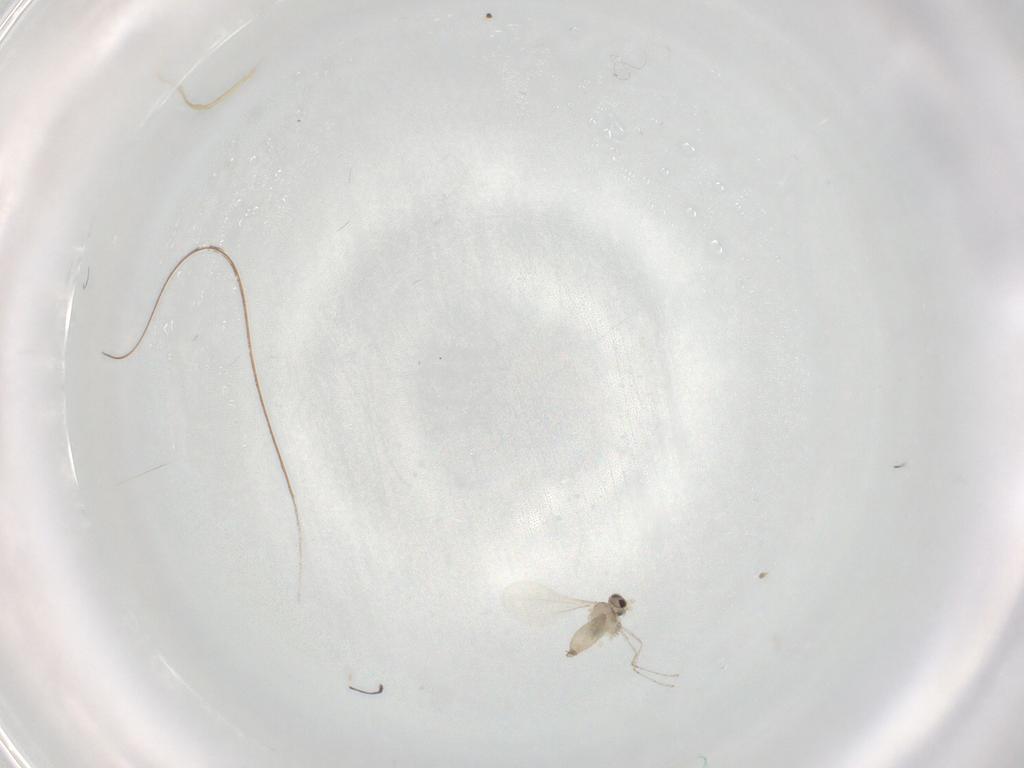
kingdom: Animalia
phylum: Arthropoda
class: Insecta
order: Diptera
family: Cecidomyiidae
